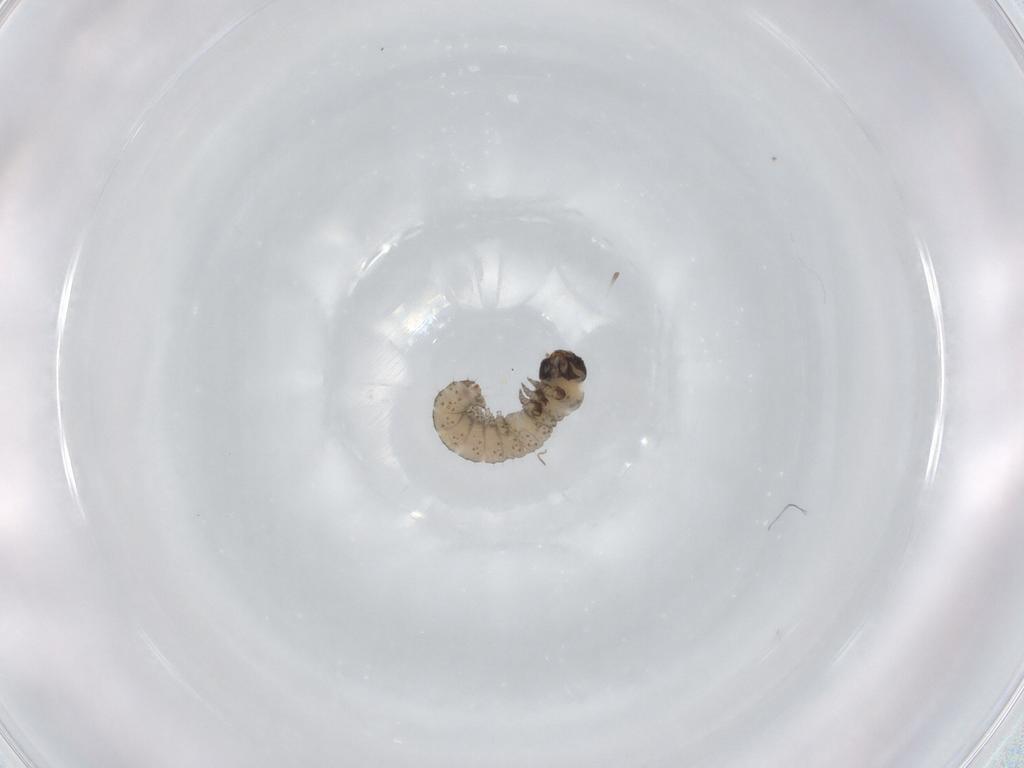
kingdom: Animalia
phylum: Arthropoda
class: Insecta
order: Lepidoptera
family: Noctuidae
